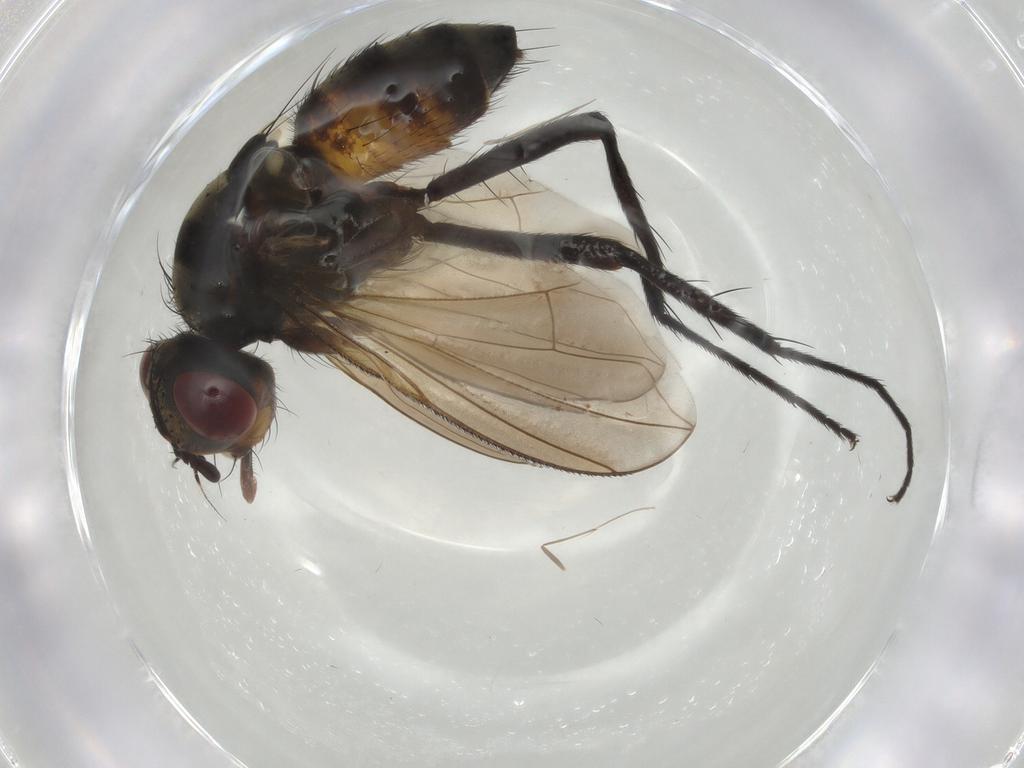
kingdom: Animalia
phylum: Arthropoda
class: Insecta
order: Diptera
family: Tachinidae
